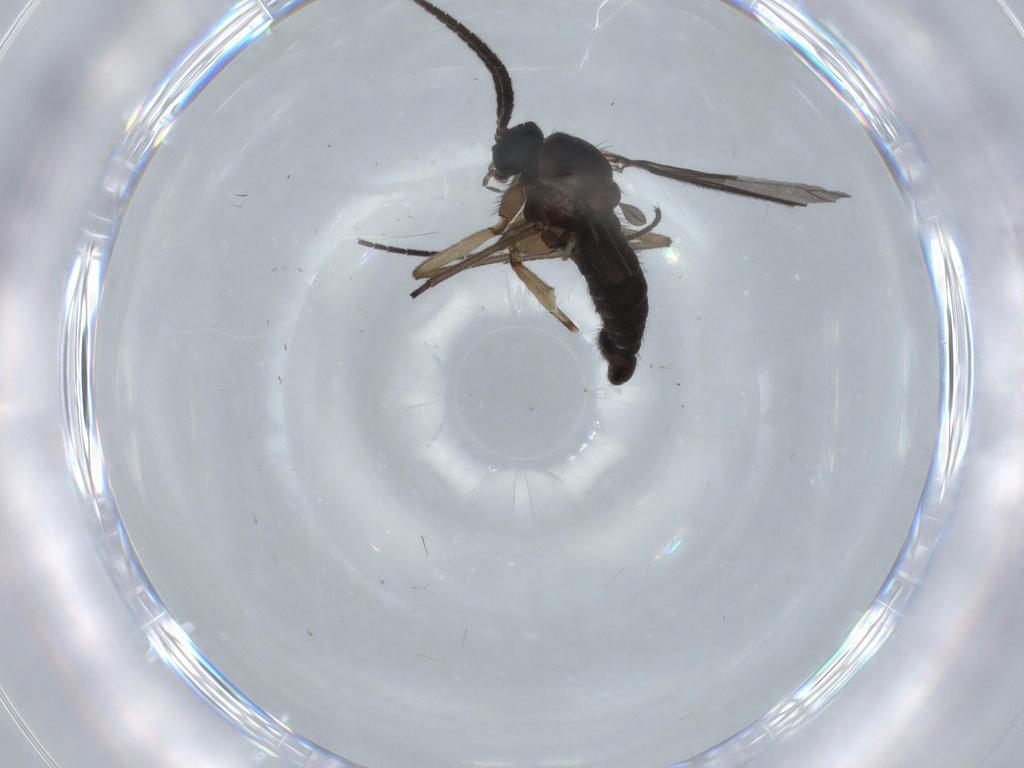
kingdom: Animalia
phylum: Arthropoda
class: Insecta
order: Diptera
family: Sciaridae
